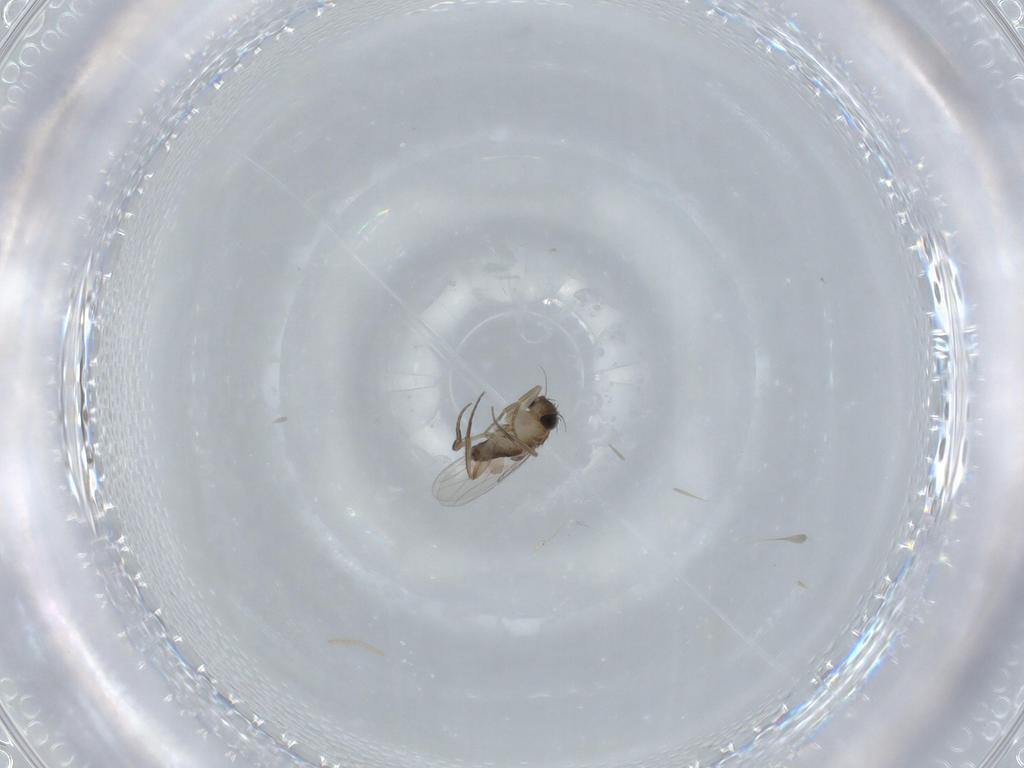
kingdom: Animalia
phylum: Arthropoda
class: Insecta
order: Diptera
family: Phoridae
